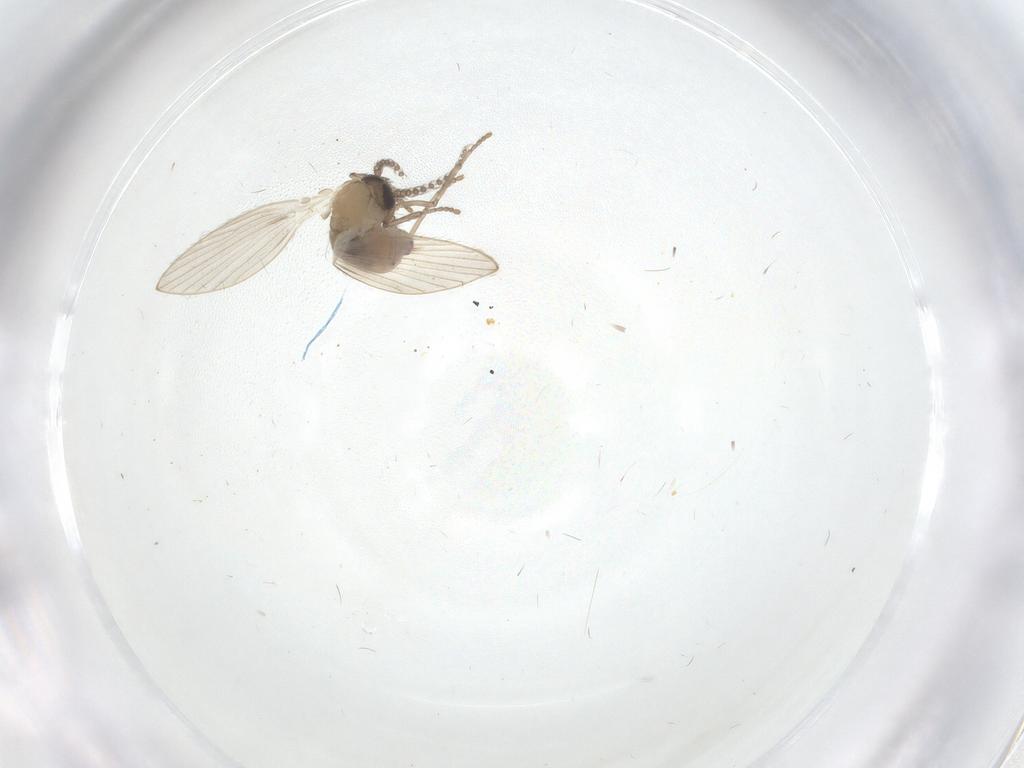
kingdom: Animalia
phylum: Arthropoda
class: Insecta
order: Diptera
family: Psychodidae
